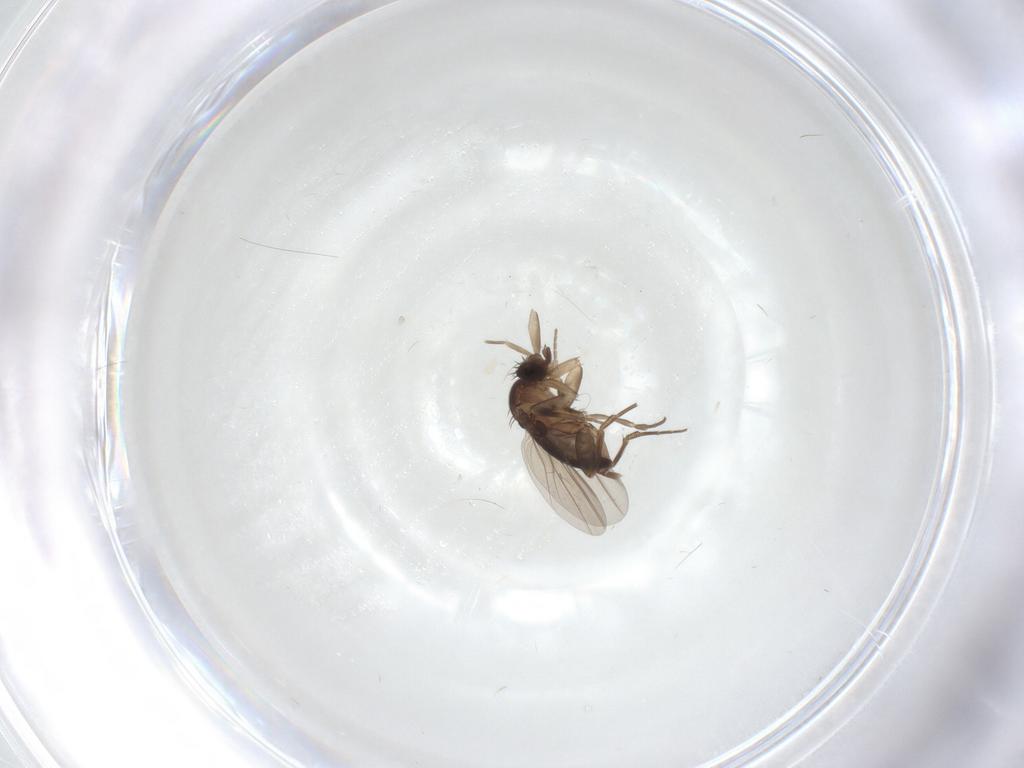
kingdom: Animalia
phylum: Arthropoda
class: Insecta
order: Diptera
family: Phoridae
